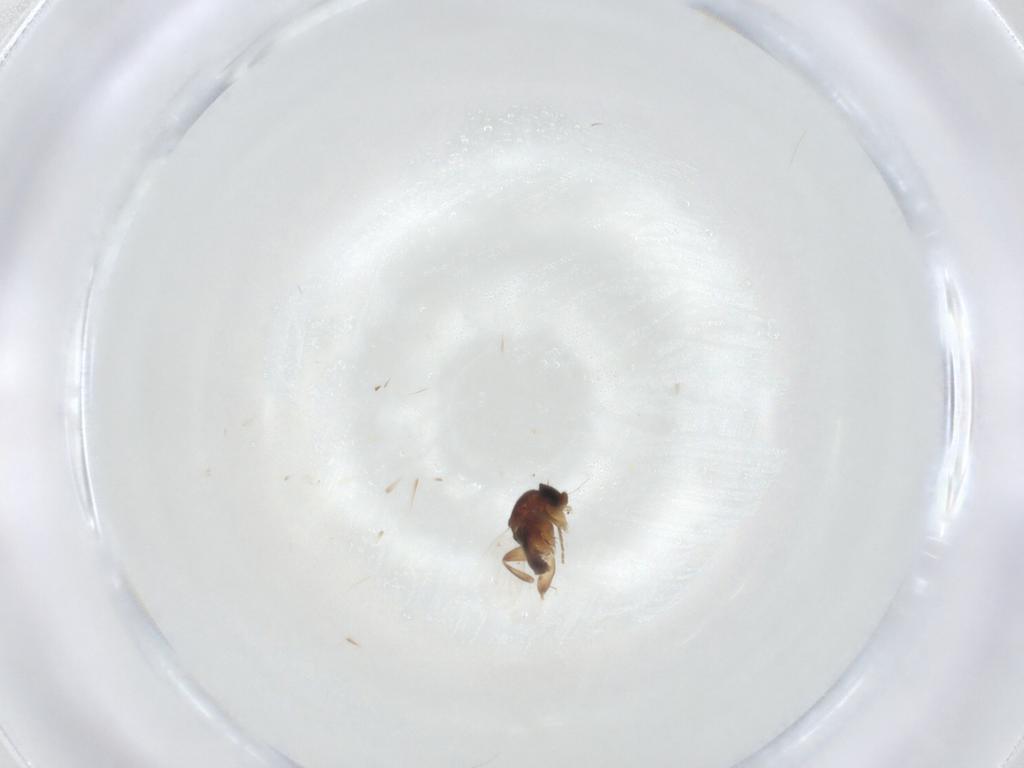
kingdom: Animalia
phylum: Arthropoda
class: Insecta
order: Diptera
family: Phoridae
